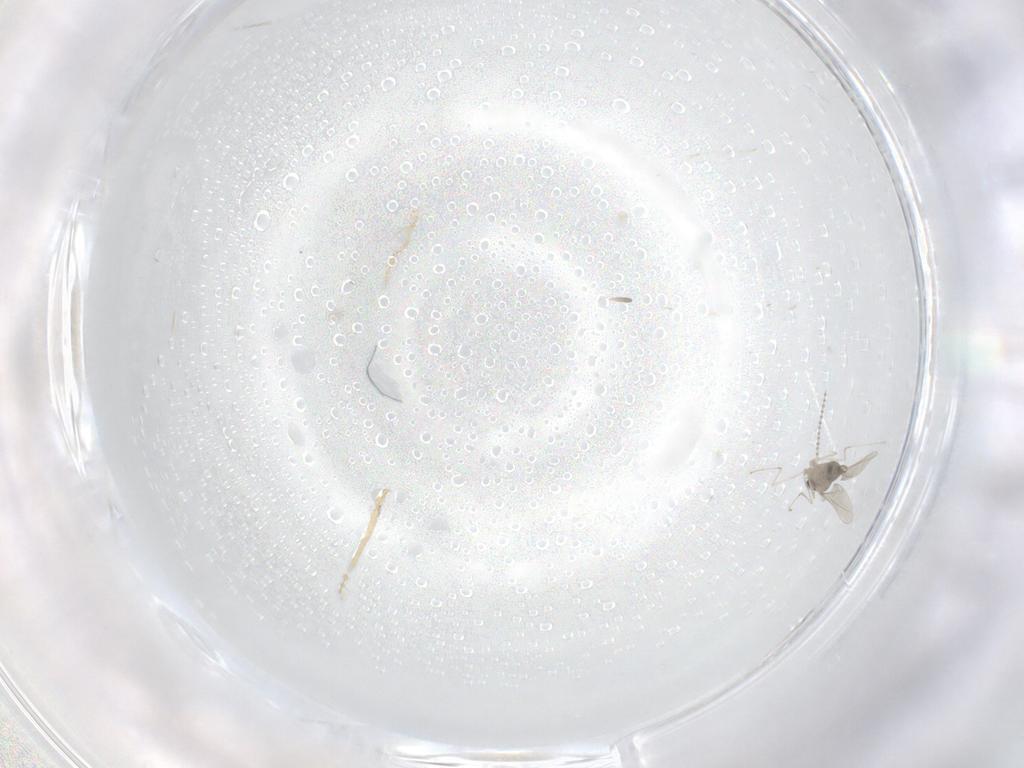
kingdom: Animalia
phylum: Arthropoda
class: Insecta
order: Diptera
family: Cecidomyiidae
